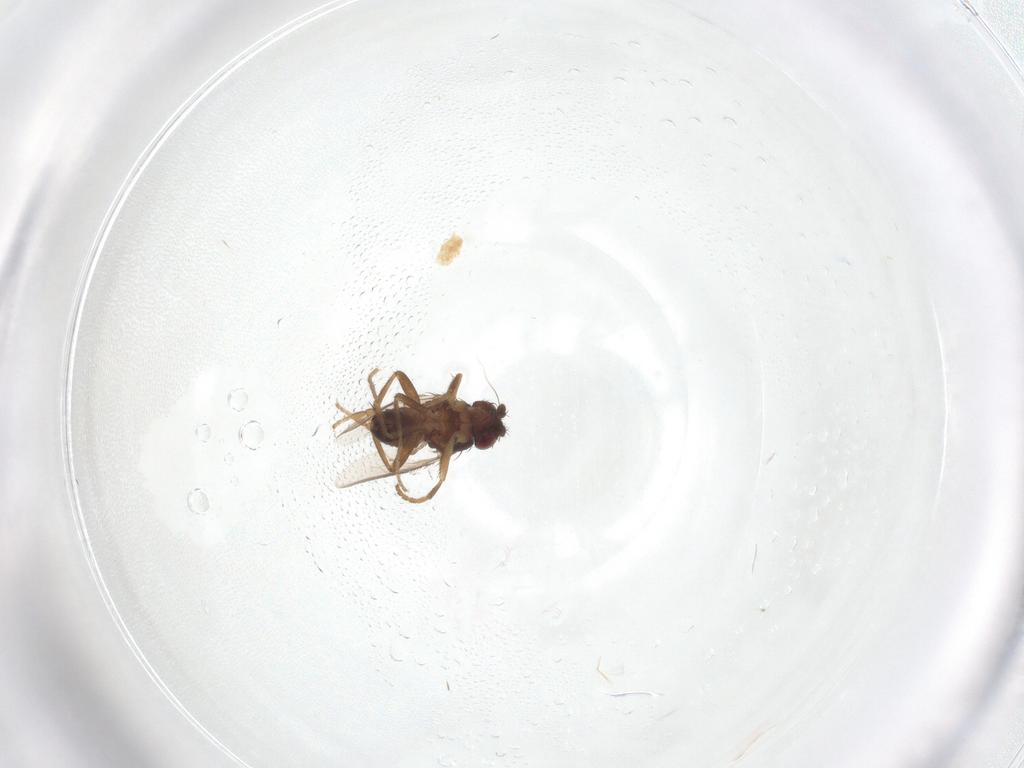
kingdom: Animalia
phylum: Arthropoda
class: Insecta
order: Diptera
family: Sphaeroceridae
